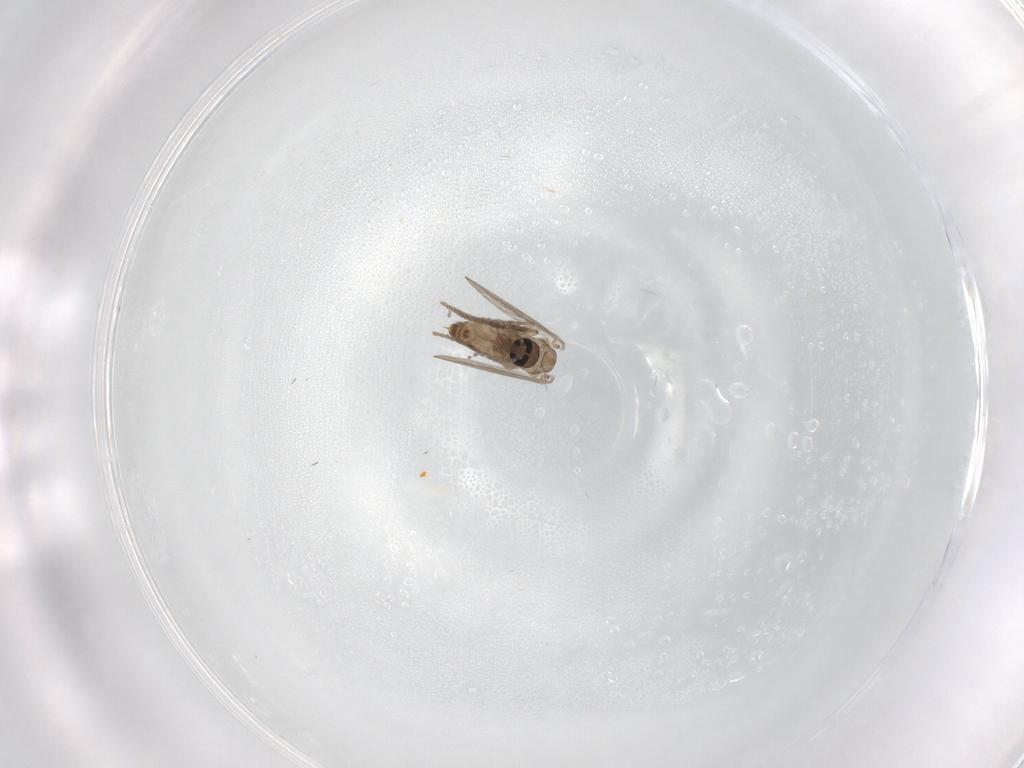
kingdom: Animalia
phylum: Arthropoda
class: Insecta
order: Diptera
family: Psychodidae
